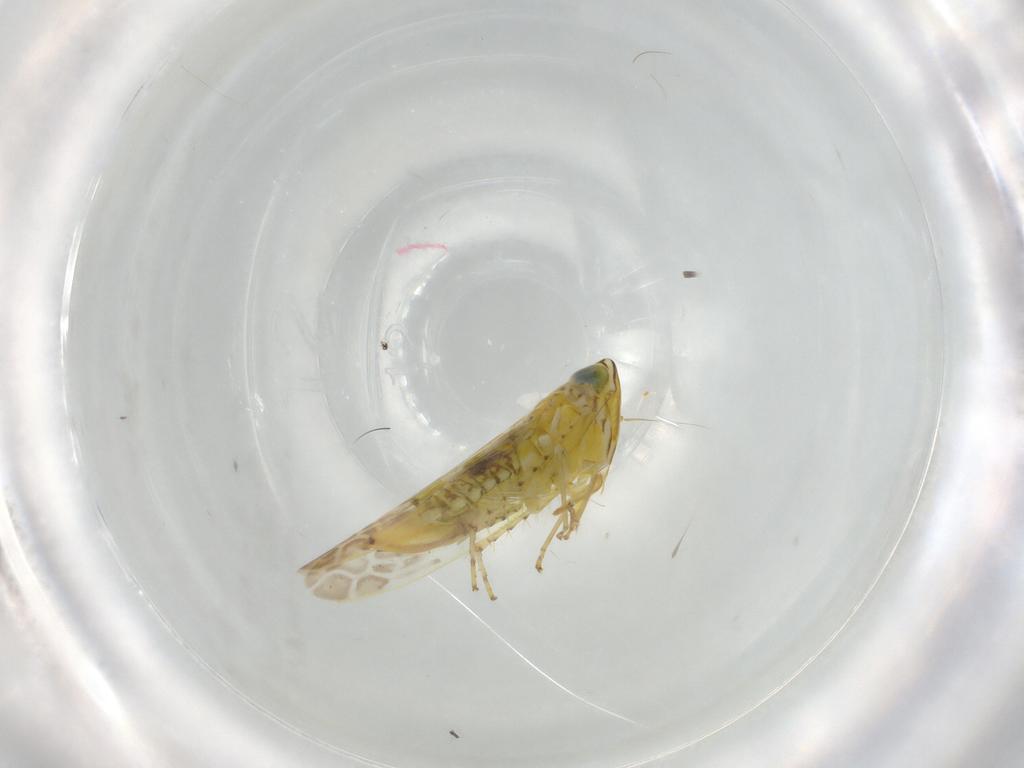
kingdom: Animalia
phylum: Arthropoda
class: Insecta
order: Hemiptera
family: Cicadellidae
